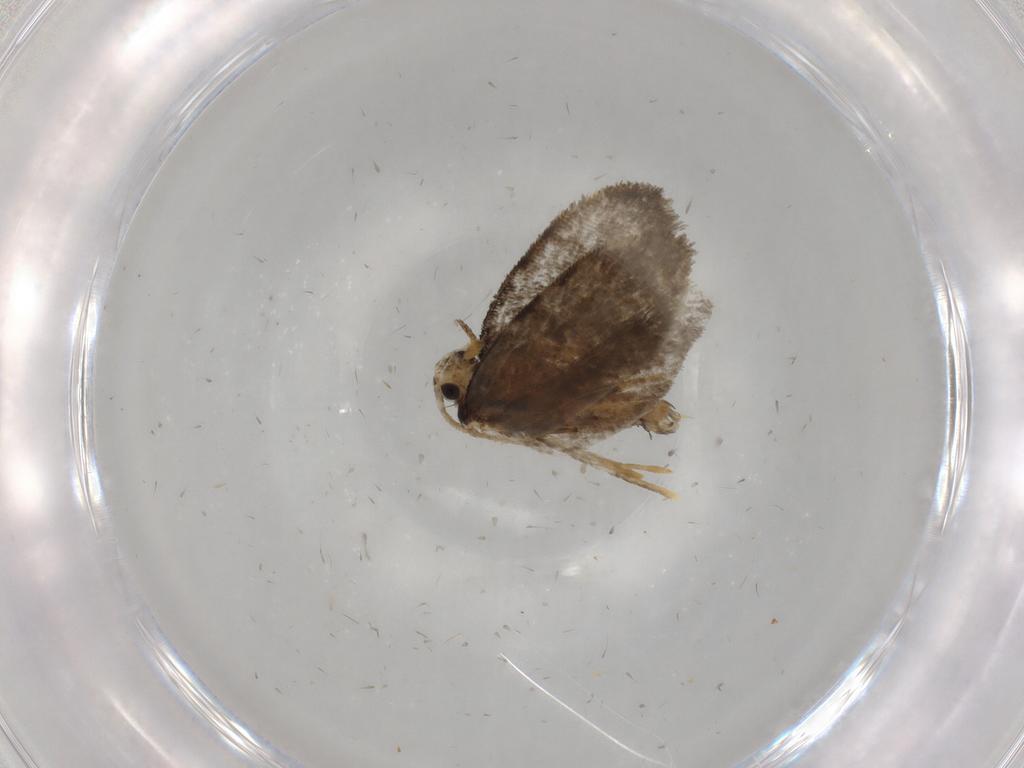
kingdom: Animalia
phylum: Arthropoda
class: Insecta
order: Lepidoptera
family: Psychidae
